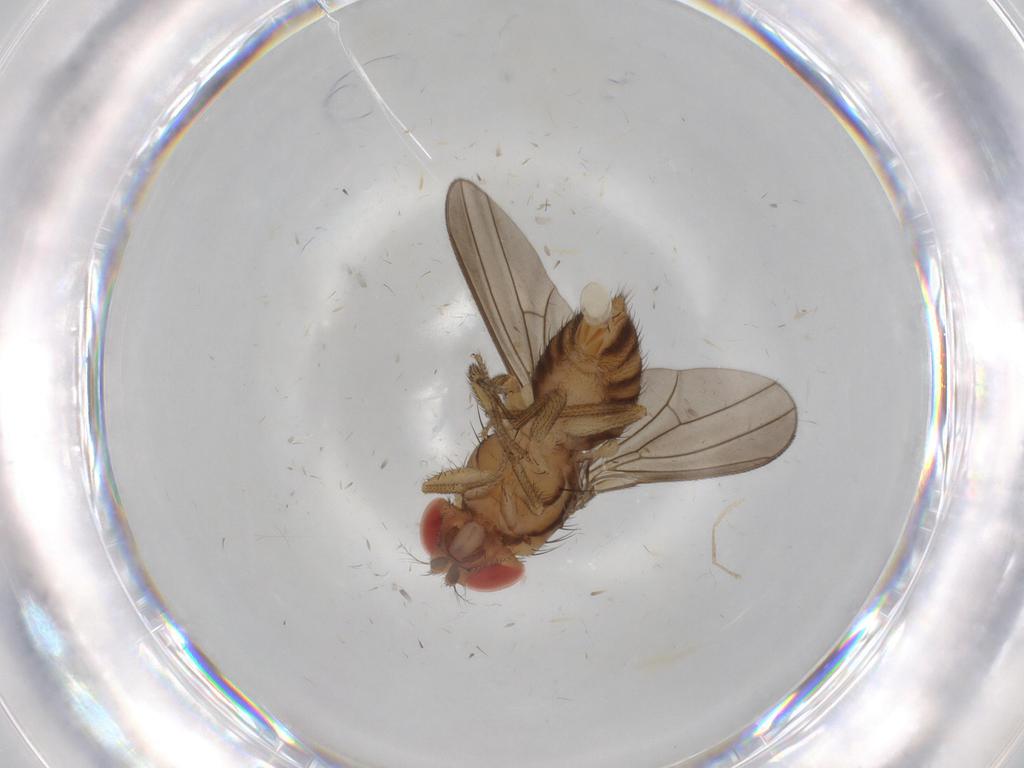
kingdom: Animalia
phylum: Arthropoda
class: Insecta
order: Diptera
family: Drosophilidae
